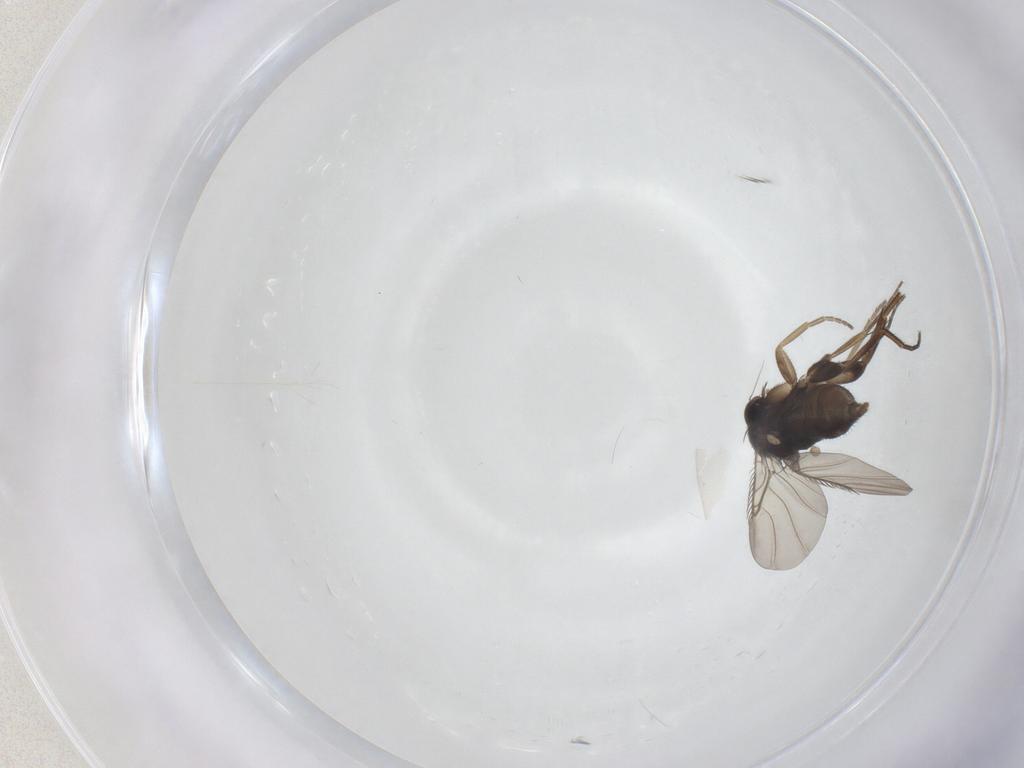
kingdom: Animalia
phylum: Arthropoda
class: Insecta
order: Diptera
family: Phoridae
